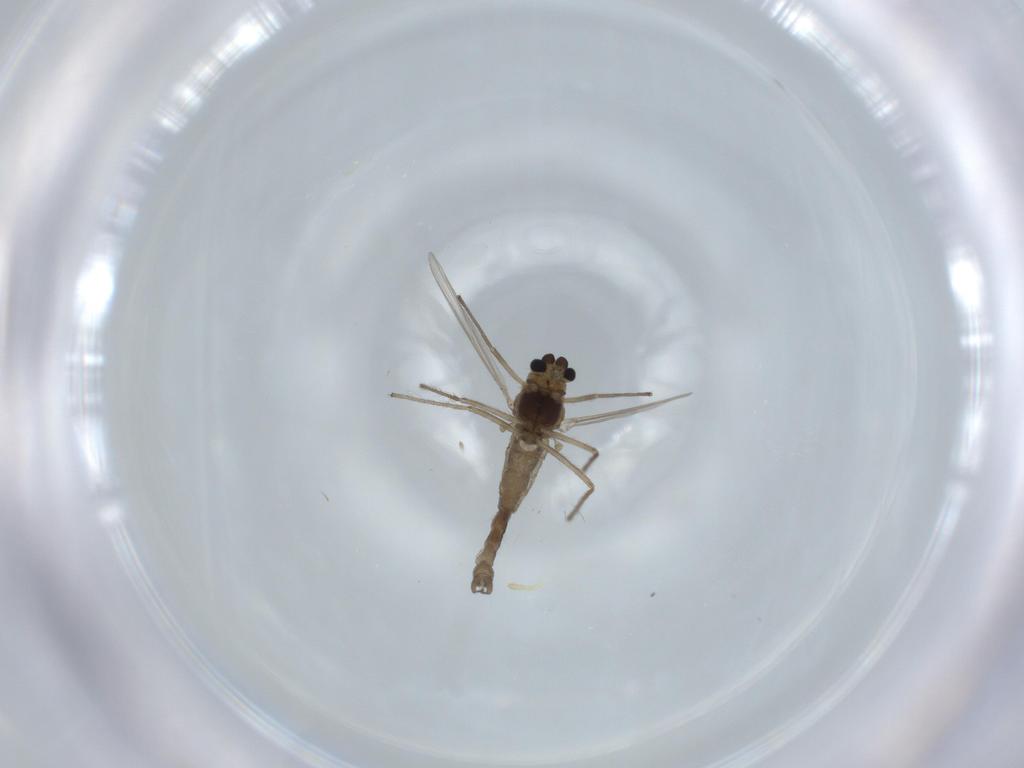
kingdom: Animalia
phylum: Arthropoda
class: Insecta
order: Diptera
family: Chironomidae
